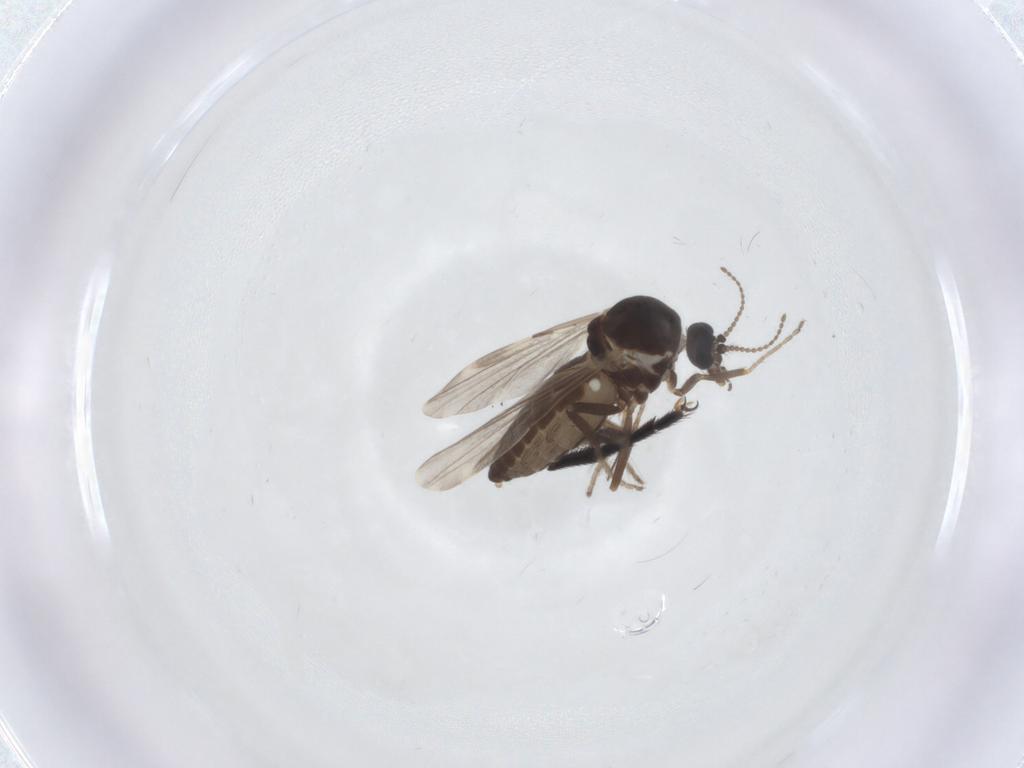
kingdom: Animalia
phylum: Arthropoda
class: Insecta
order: Diptera
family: Ceratopogonidae
